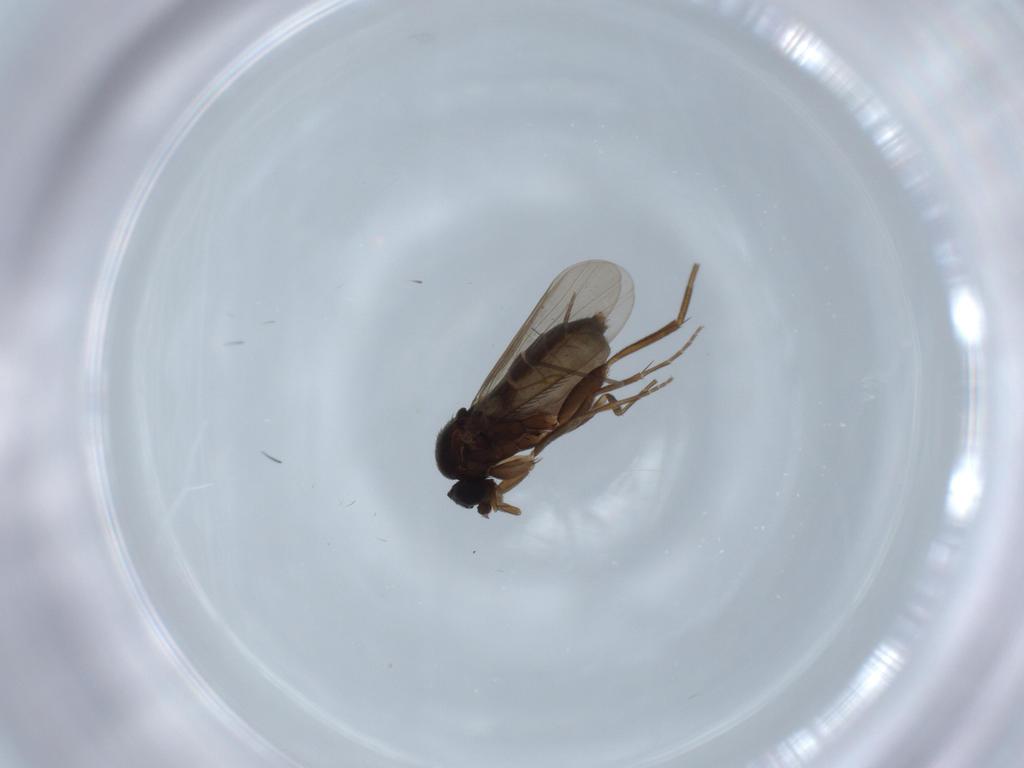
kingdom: Animalia
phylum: Arthropoda
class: Insecta
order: Diptera
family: Phoridae
